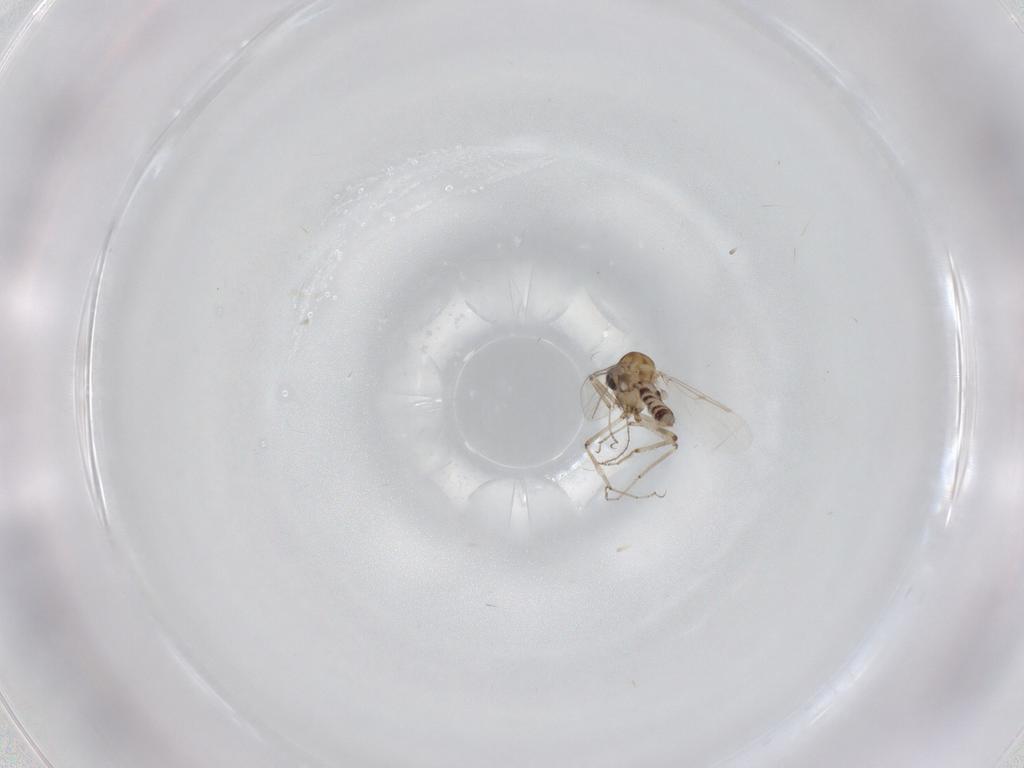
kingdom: Animalia
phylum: Arthropoda
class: Insecta
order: Diptera
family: Ceratopogonidae
